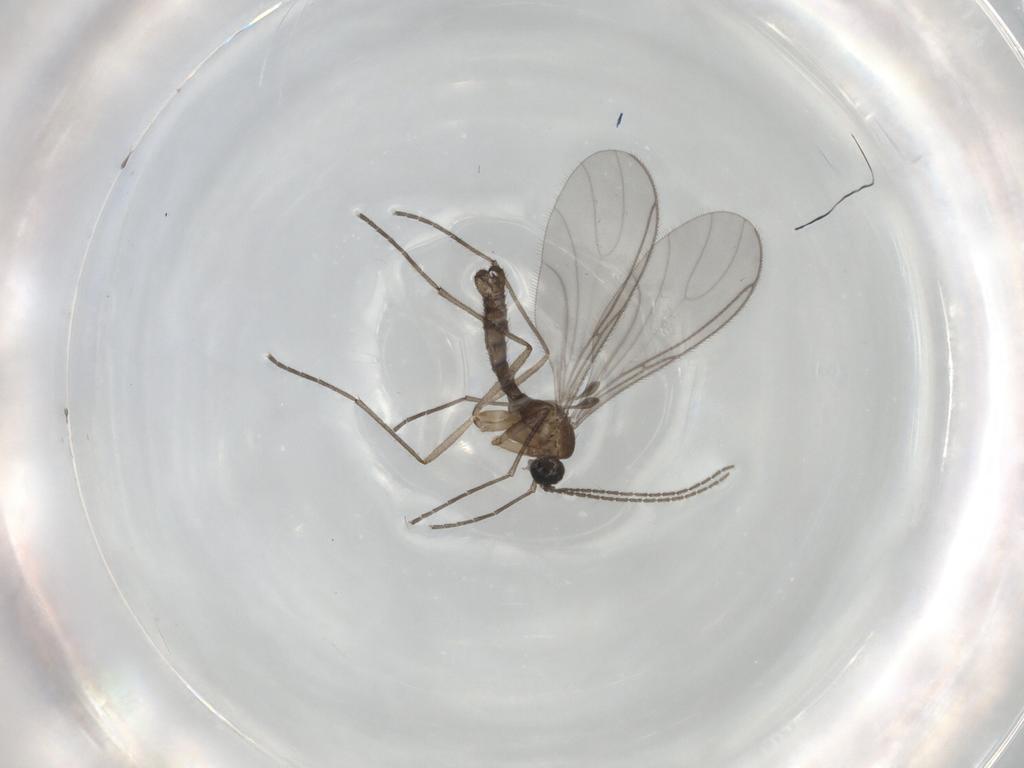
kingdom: Animalia
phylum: Arthropoda
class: Insecta
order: Diptera
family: Sciaridae
